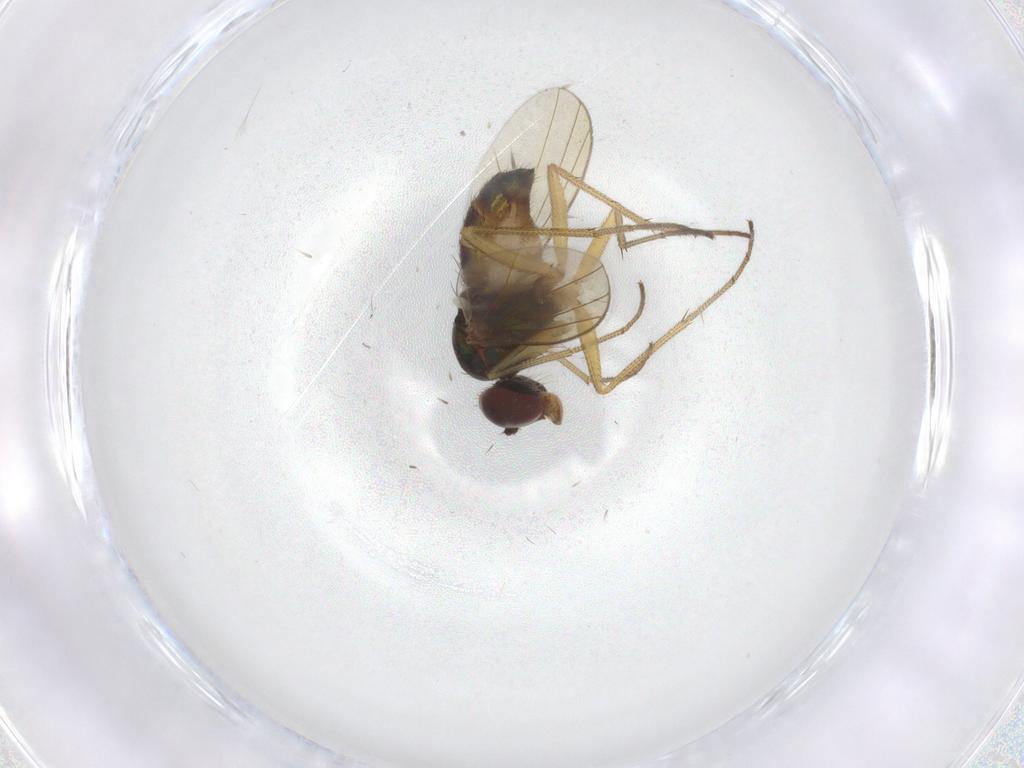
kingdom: Animalia
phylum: Arthropoda
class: Insecta
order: Diptera
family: Dolichopodidae
